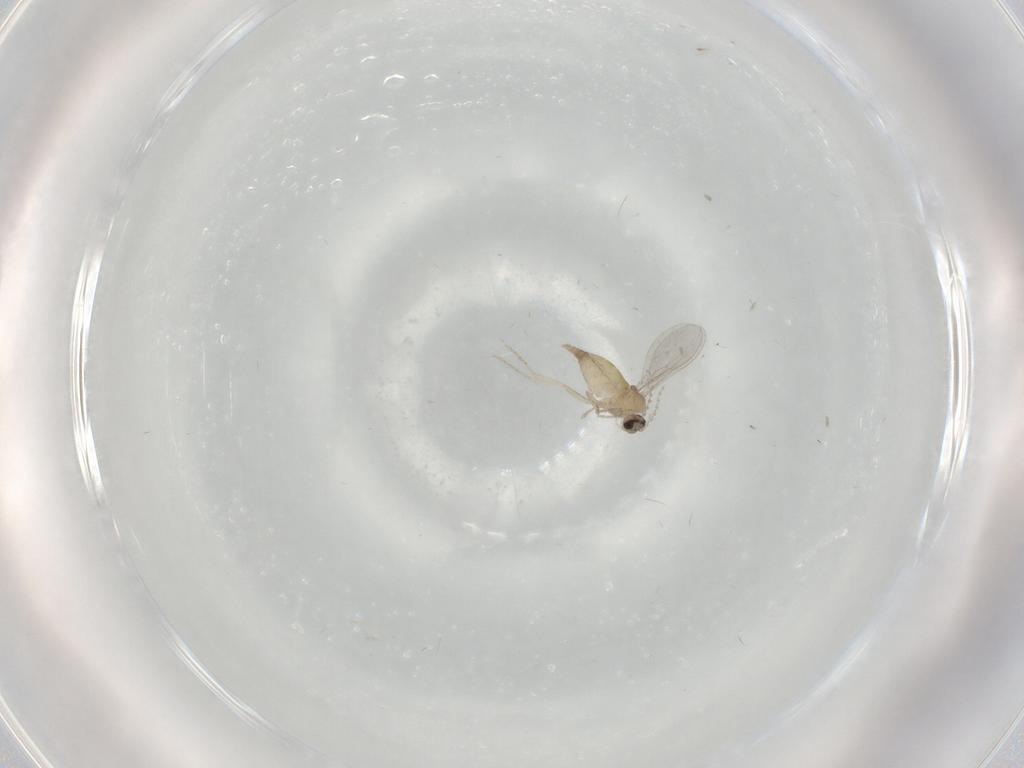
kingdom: Animalia
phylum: Arthropoda
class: Insecta
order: Diptera
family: Cecidomyiidae
